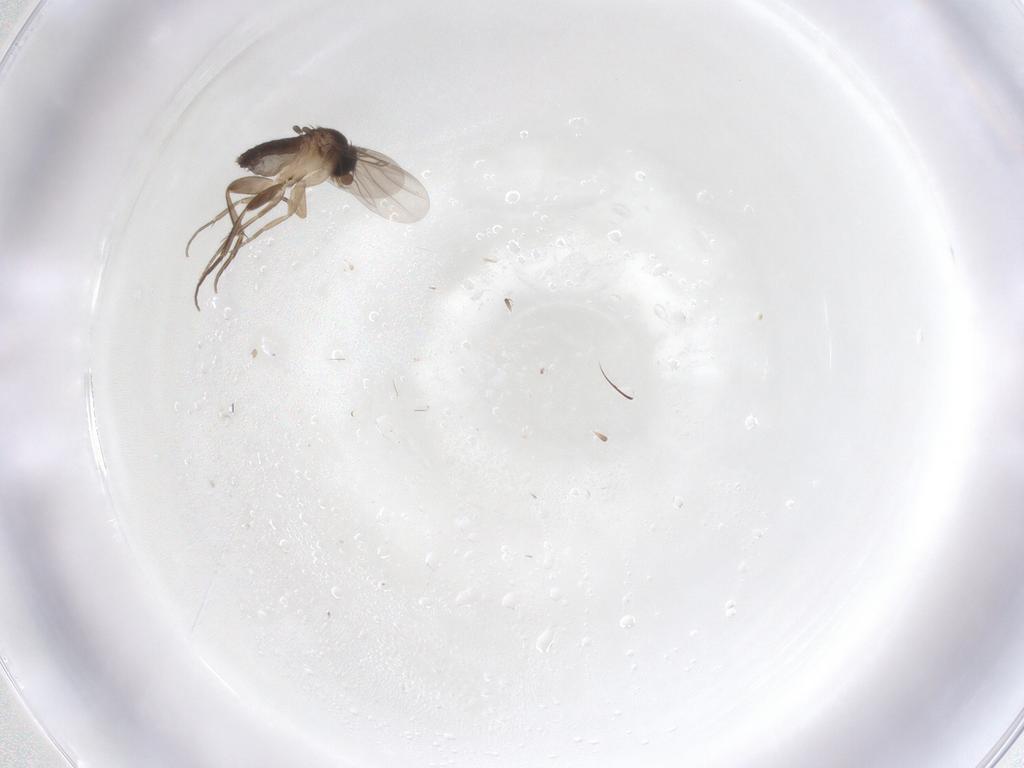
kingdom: Animalia
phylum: Arthropoda
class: Insecta
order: Diptera
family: Phoridae
